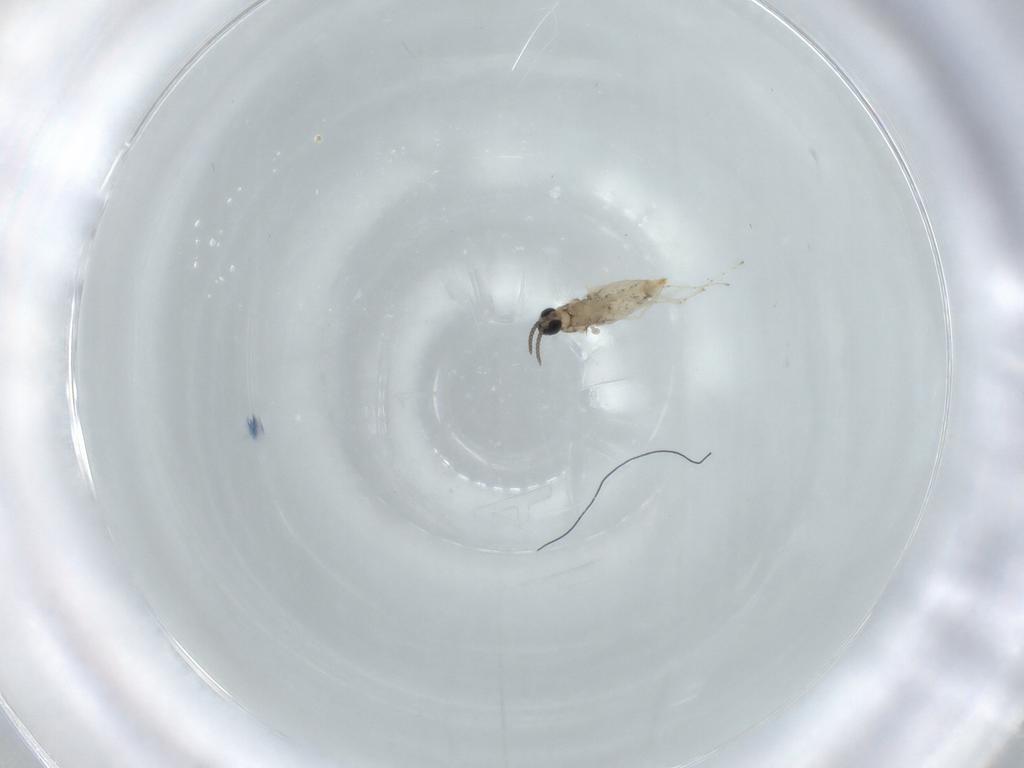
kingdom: Animalia
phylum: Arthropoda
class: Insecta
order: Diptera
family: Cecidomyiidae
